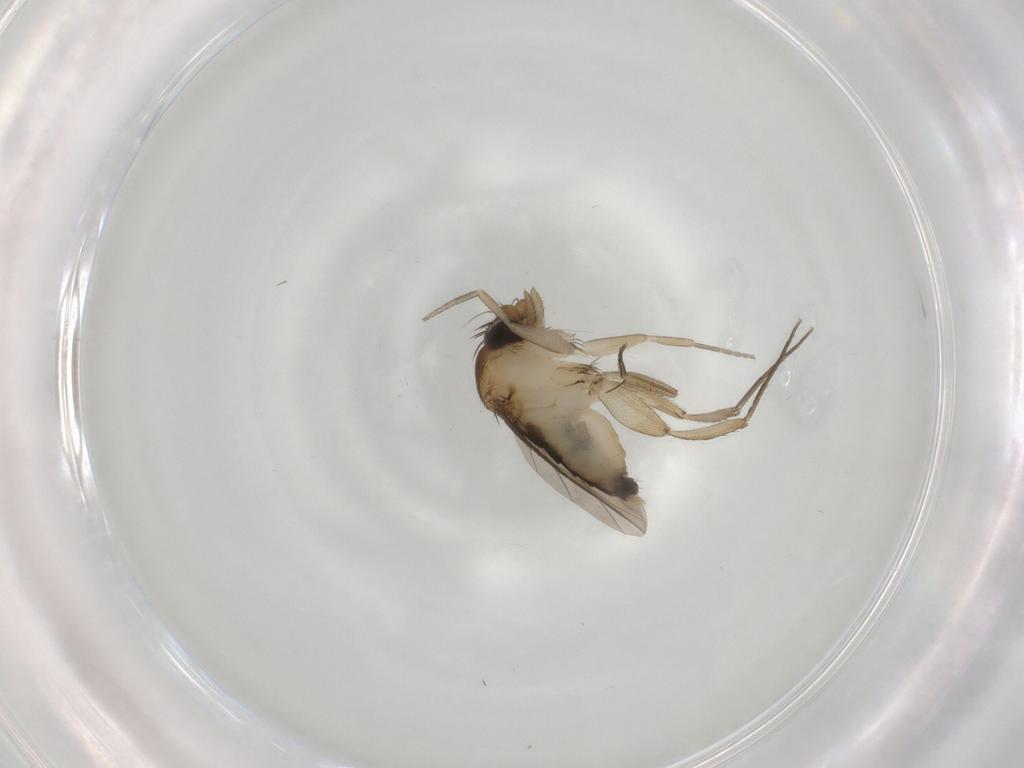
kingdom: Animalia
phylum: Arthropoda
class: Insecta
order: Diptera
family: Phoridae
